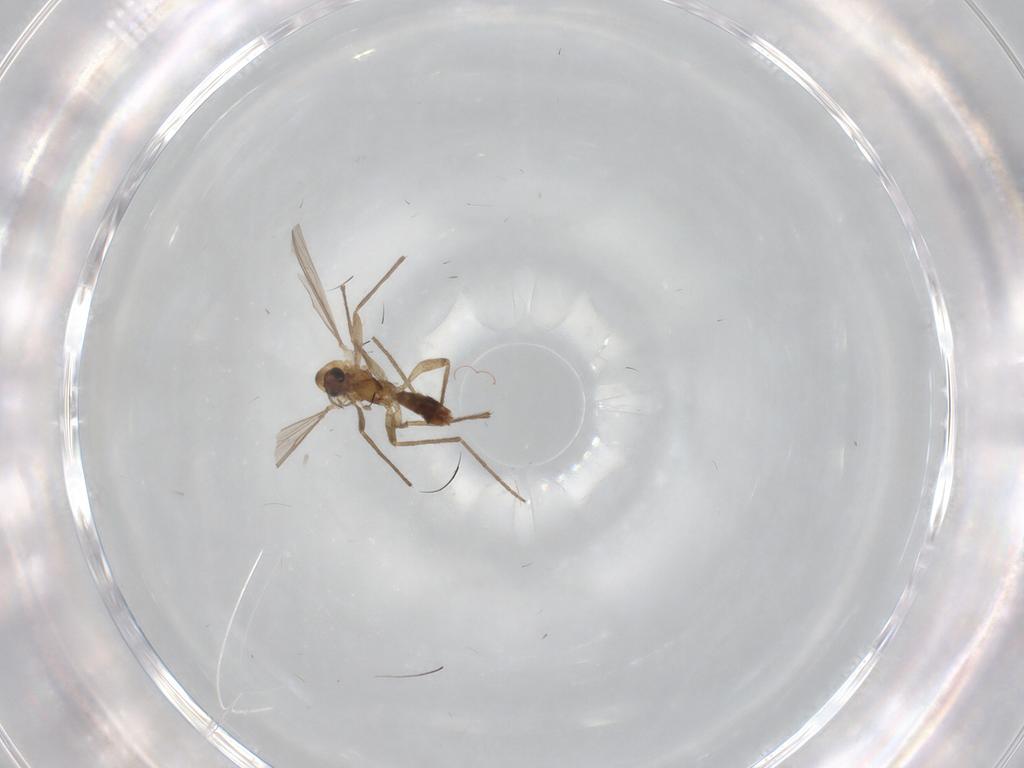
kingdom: Animalia
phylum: Arthropoda
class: Insecta
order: Diptera
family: Chironomidae
